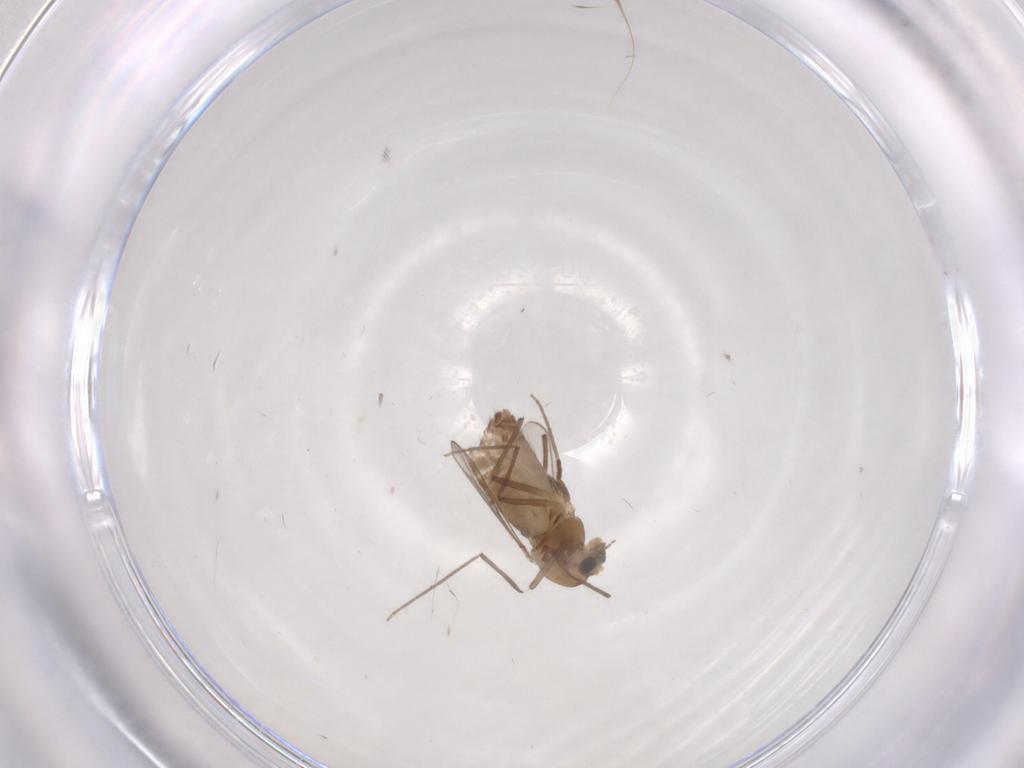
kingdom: Animalia
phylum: Arthropoda
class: Insecta
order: Diptera
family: Chironomidae
